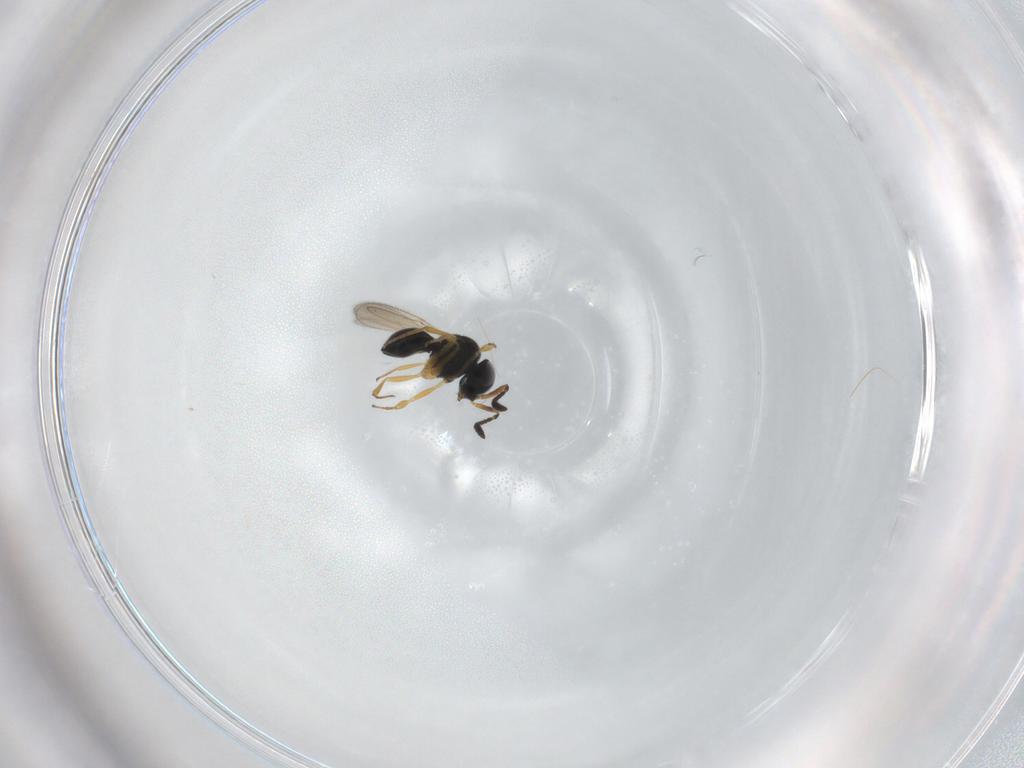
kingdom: Animalia
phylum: Arthropoda
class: Insecta
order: Hymenoptera
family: Scelionidae
